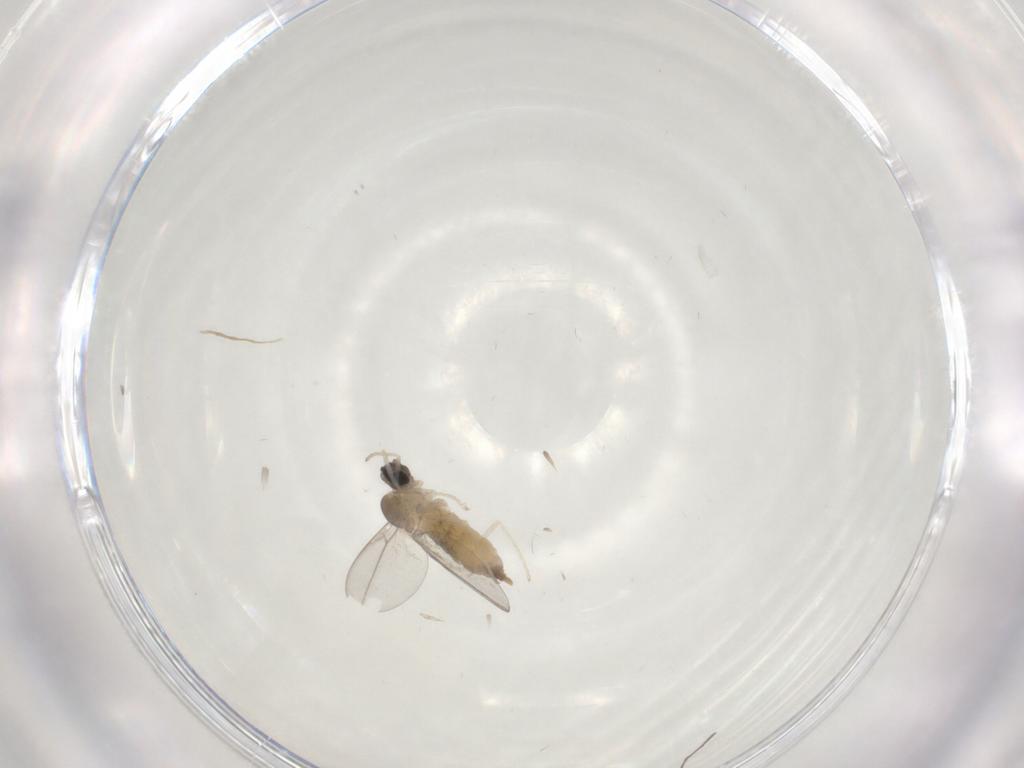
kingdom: Animalia
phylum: Arthropoda
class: Insecta
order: Diptera
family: Cecidomyiidae
